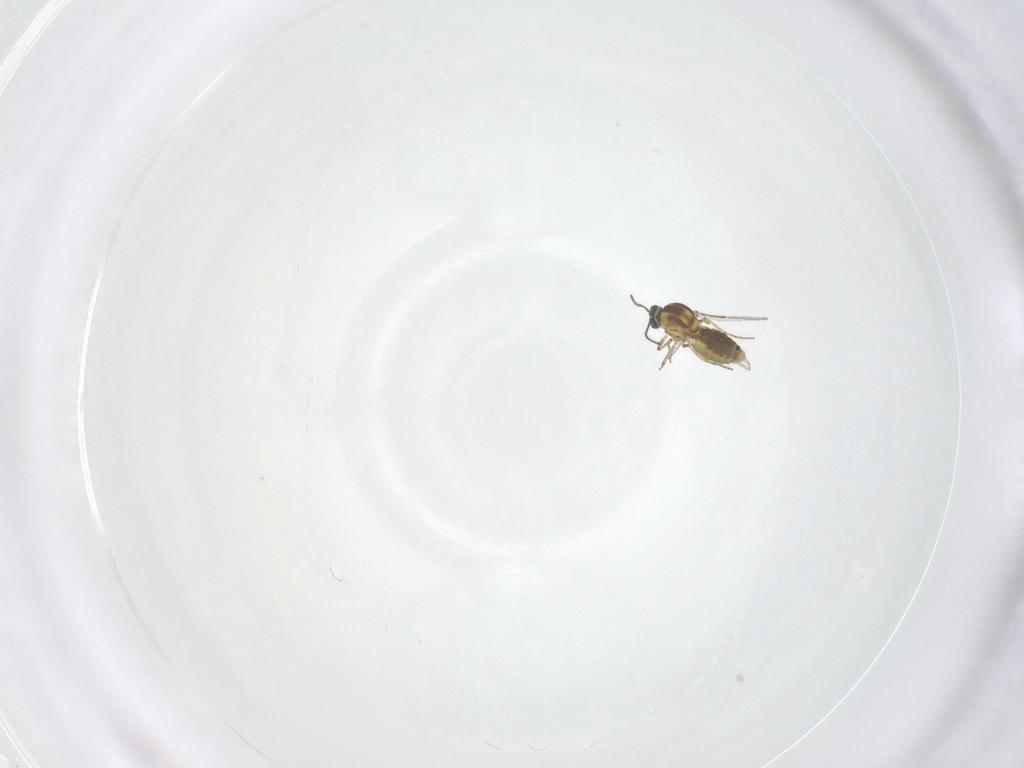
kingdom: Animalia
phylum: Arthropoda
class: Insecta
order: Diptera
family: Ceratopogonidae
